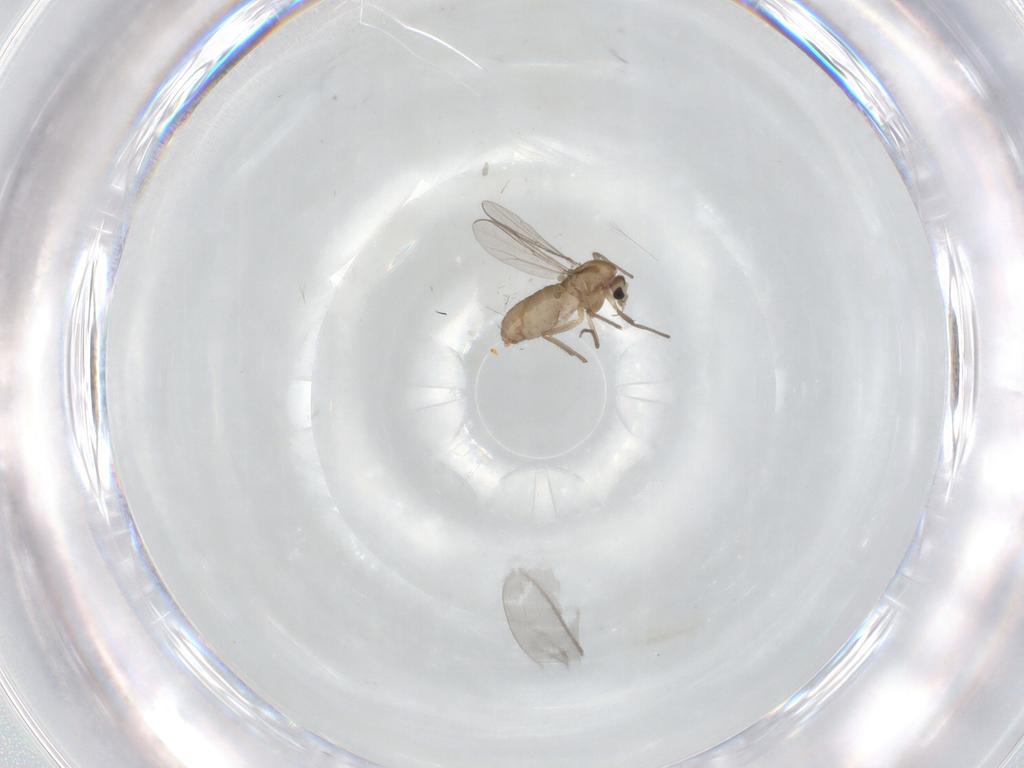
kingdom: Animalia
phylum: Arthropoda
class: Insecta
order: Diptera
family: Chironomidae
